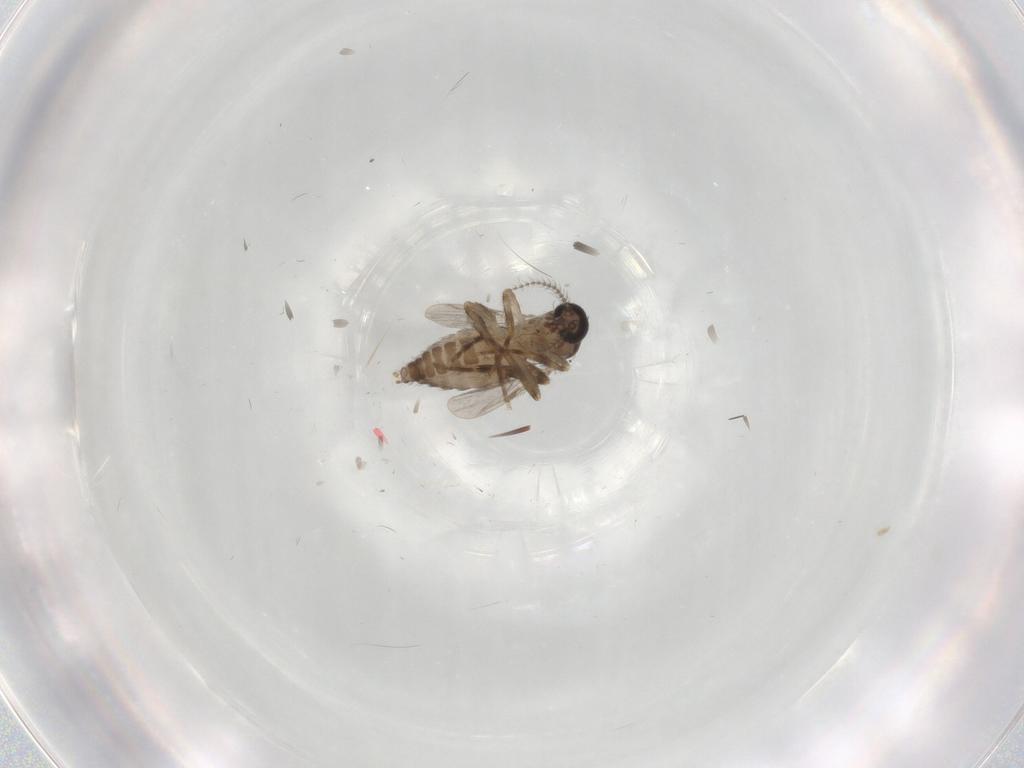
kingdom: Animalia
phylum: Arthropoda
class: Insecta
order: Diptera
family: Ceratopogonidae
